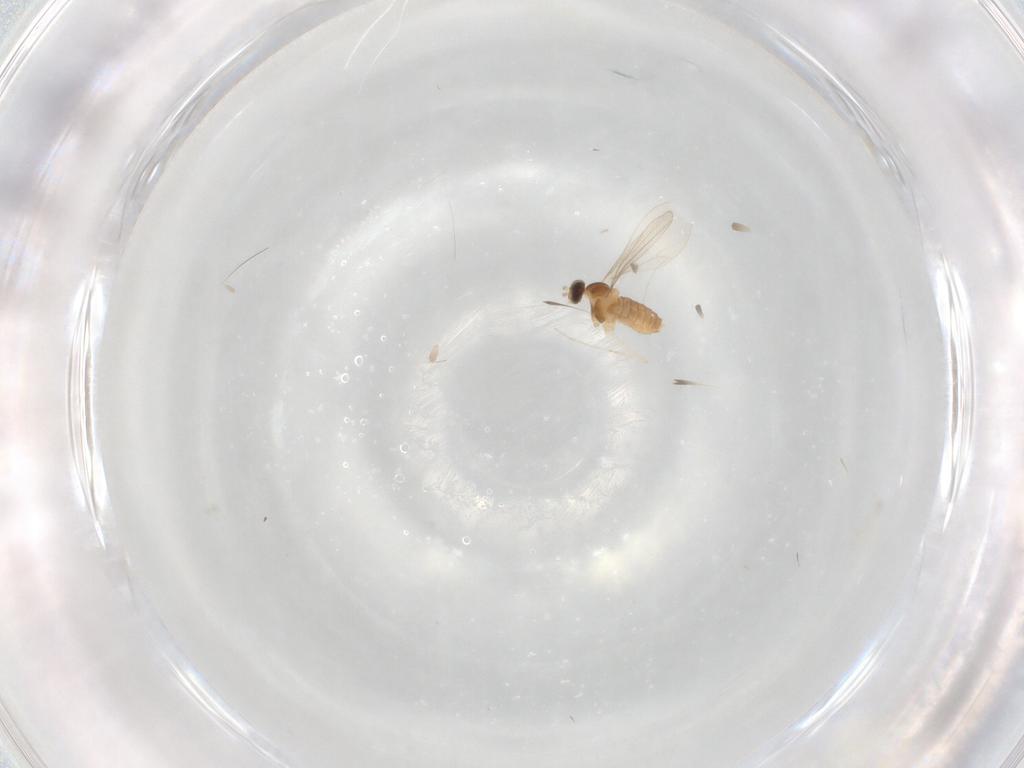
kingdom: Animalia
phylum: Arthropoda
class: Insecta
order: Diptera
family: Cecidomyiidae
